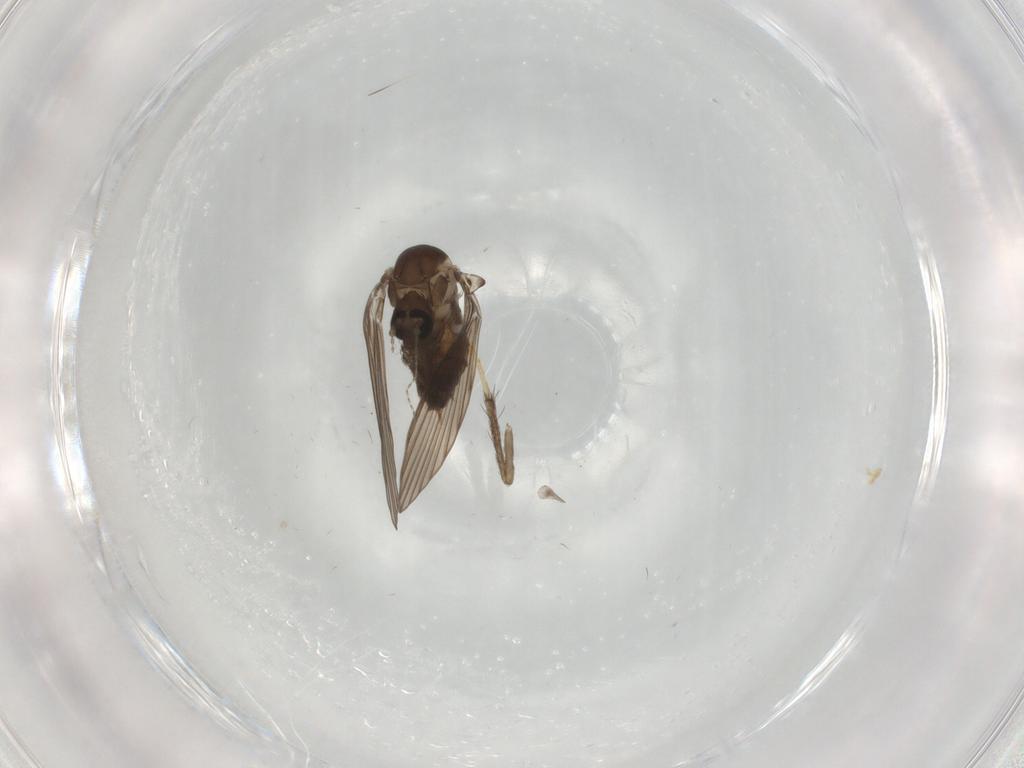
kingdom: Animalia
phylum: Arthropoda
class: Insecta
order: Diptera
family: Psychodidae
